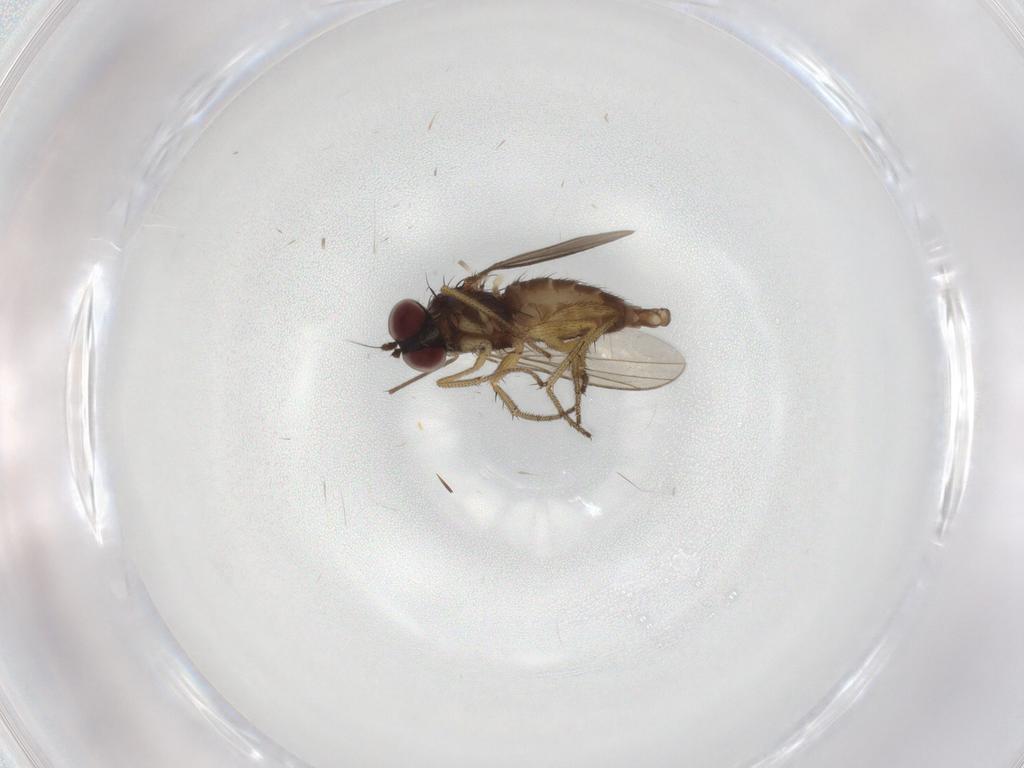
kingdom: Animalia
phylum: Arthropoda
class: Insecta
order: Diptera
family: Chironomidae
